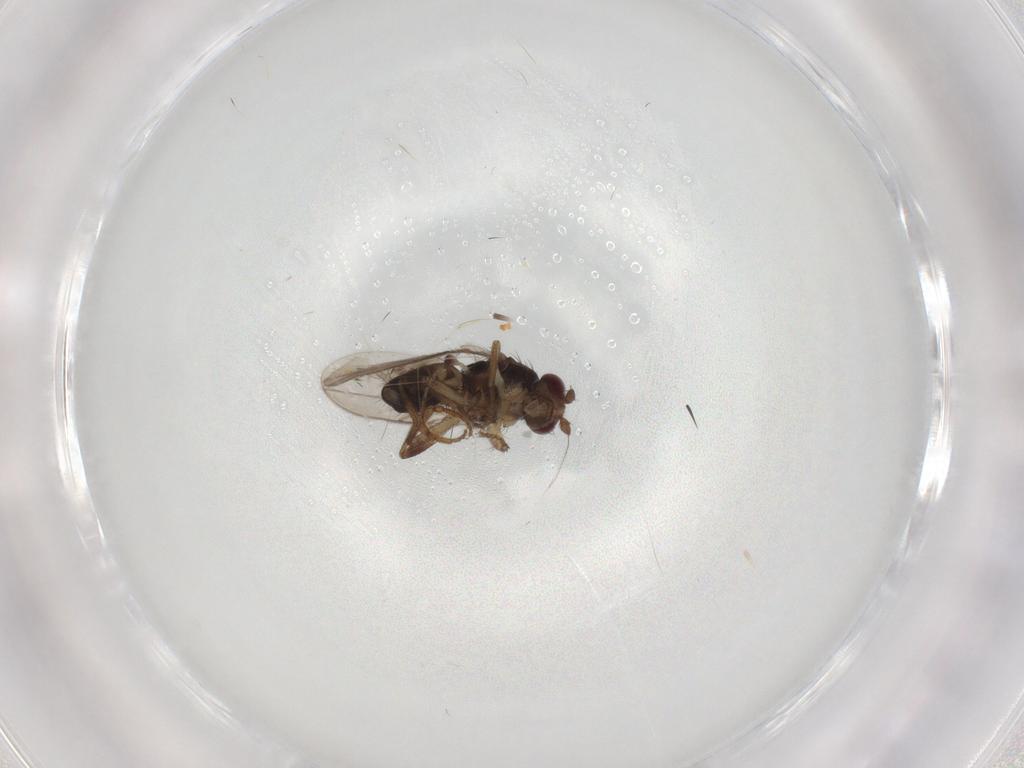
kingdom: Animalia
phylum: Arthropoda
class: Insecta
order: Diptera
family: Sphaeroceridae
